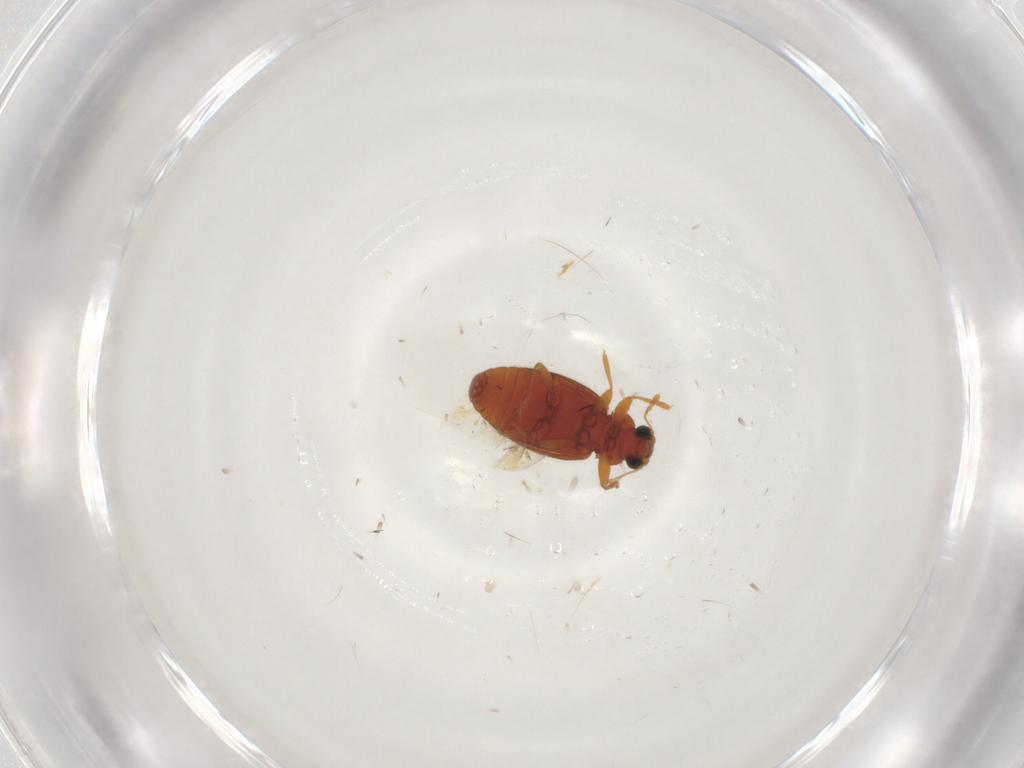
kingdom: Animalia
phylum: Arthropoda
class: Insecta
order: Coleoptera
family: Latridiidae
